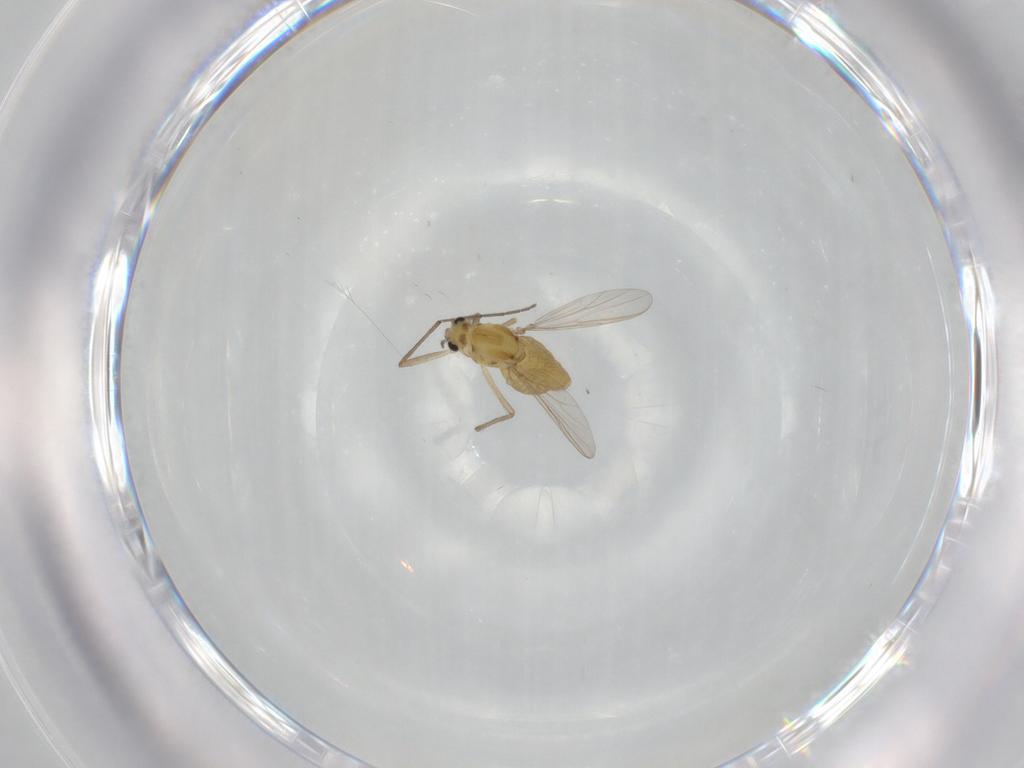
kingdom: Animalia
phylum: Arthropoda
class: Insecta
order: Diptera
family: Chironomidae
